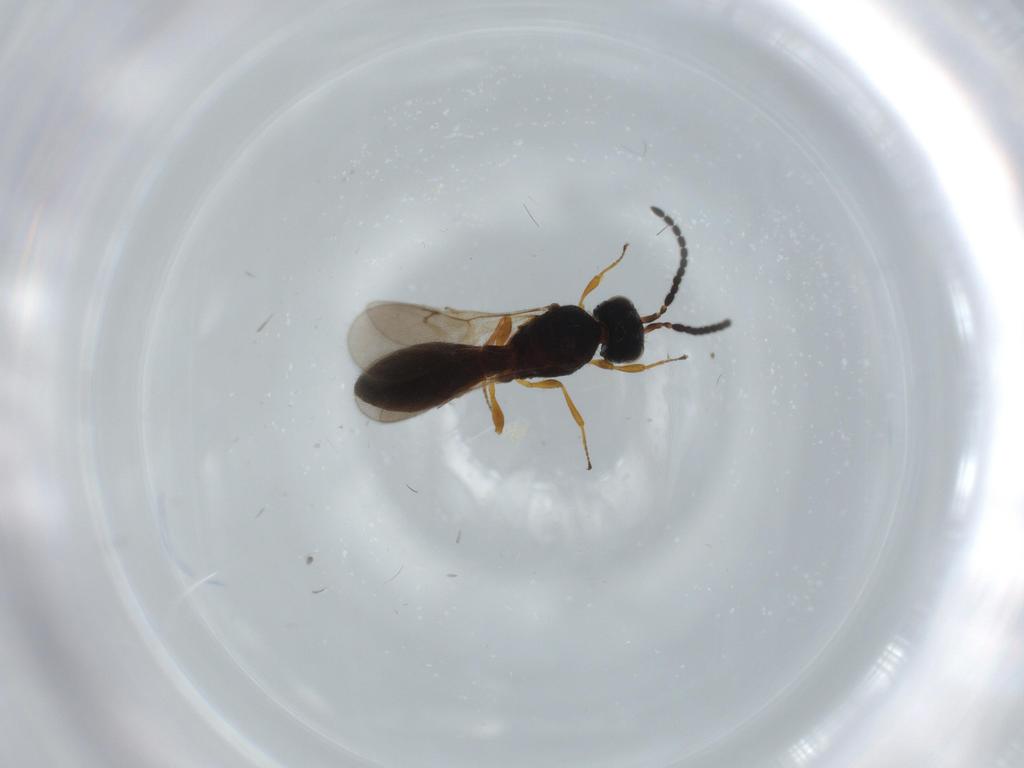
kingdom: Animalia
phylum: Arthropoda
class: Insecta
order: Hymenoptera
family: Scelionidae
